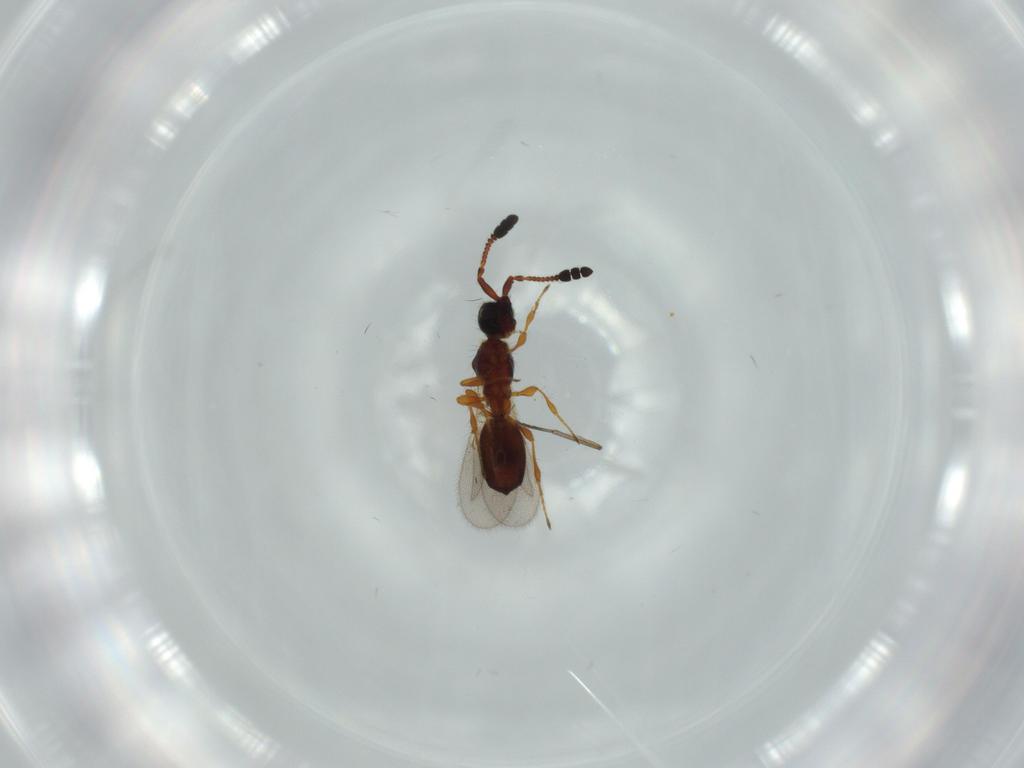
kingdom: Animalia
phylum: Arthropoda
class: Insecta
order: Hymenoptera
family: Diapriidae
